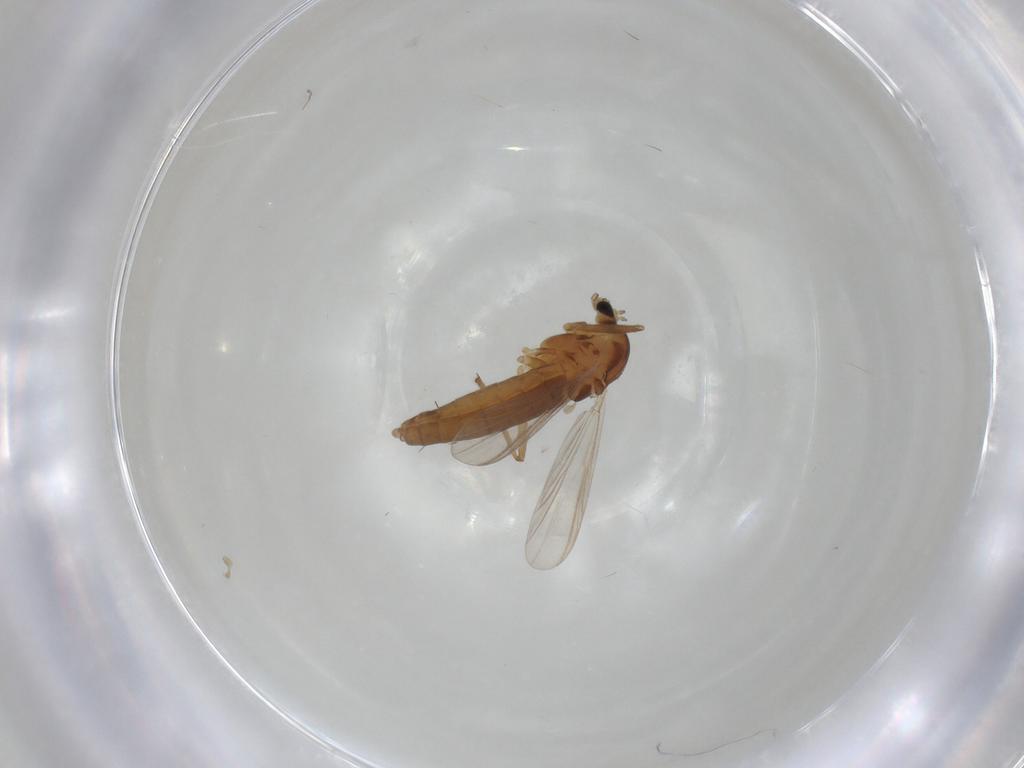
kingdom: Animalia
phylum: Arthropoda
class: Insecta
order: Diptera
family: Chironomidae
